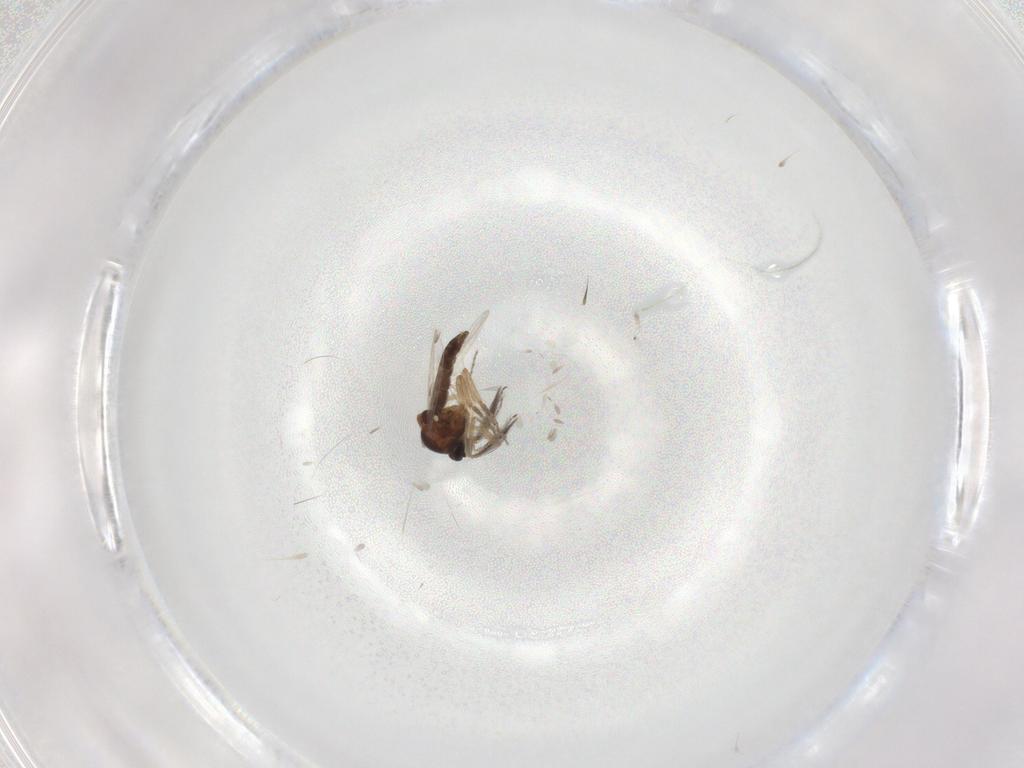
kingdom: Animalia
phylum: Arthropoda
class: Insecta
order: Diptera
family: Ceratopogonidae
